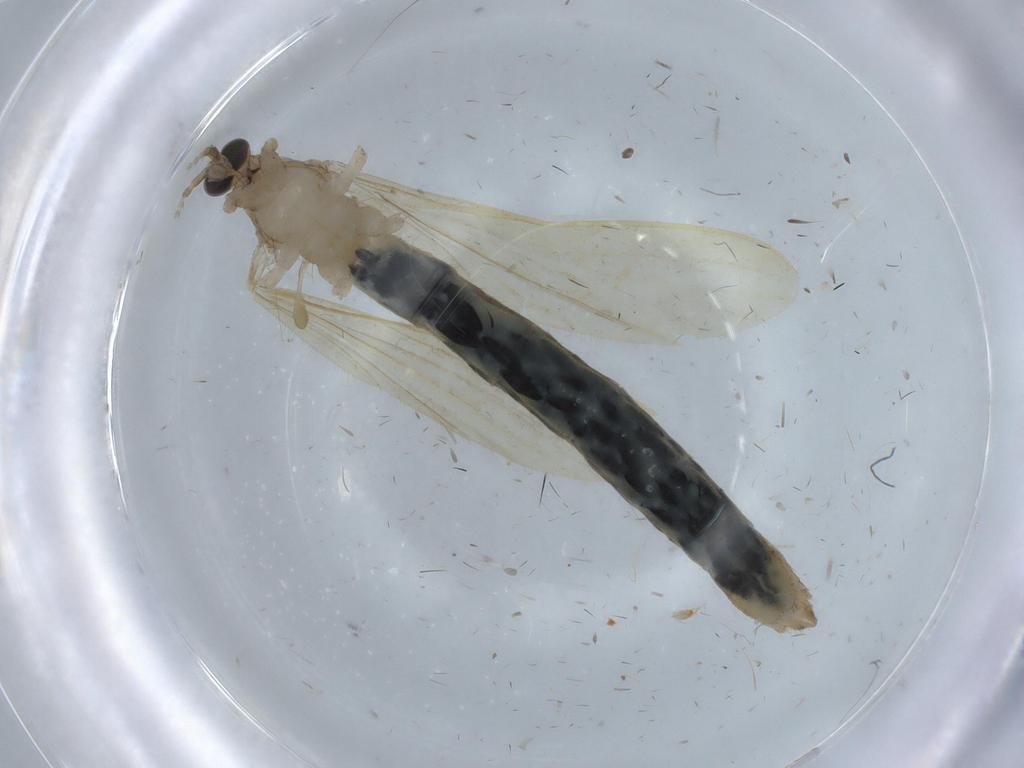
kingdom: Animalia
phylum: Arthropoda
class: Insecta
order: Diptera
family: Limoniidae
